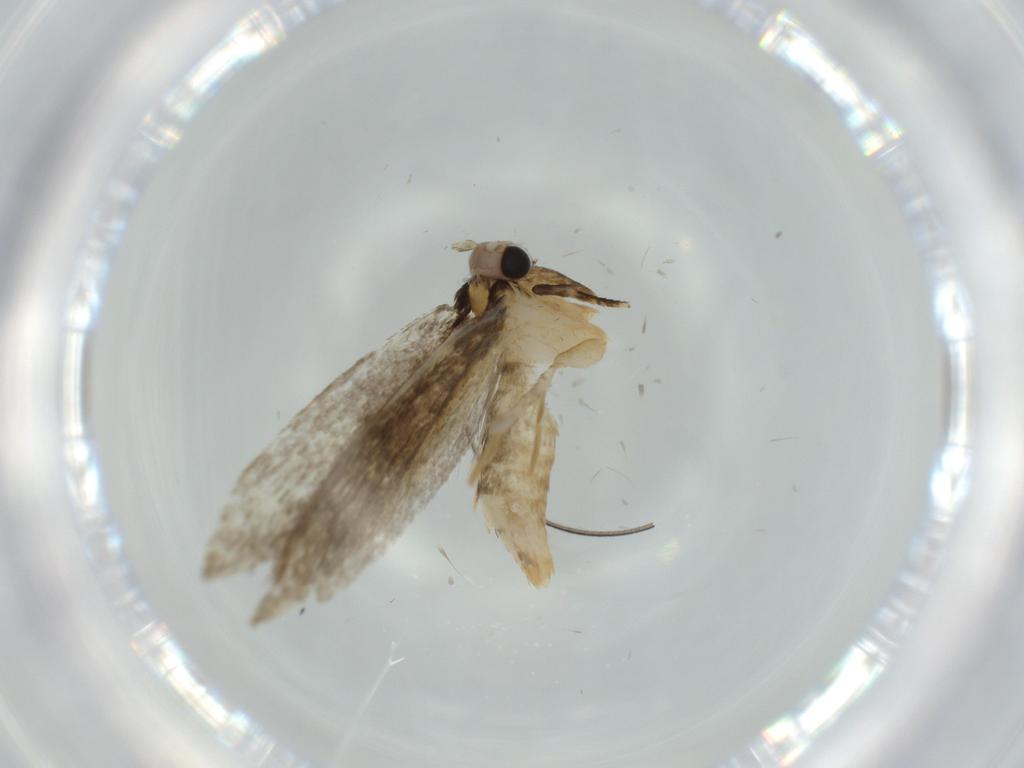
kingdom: Animalia
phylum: Arthropoda
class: Insecta
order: Lepidoptera
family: Tineidae
